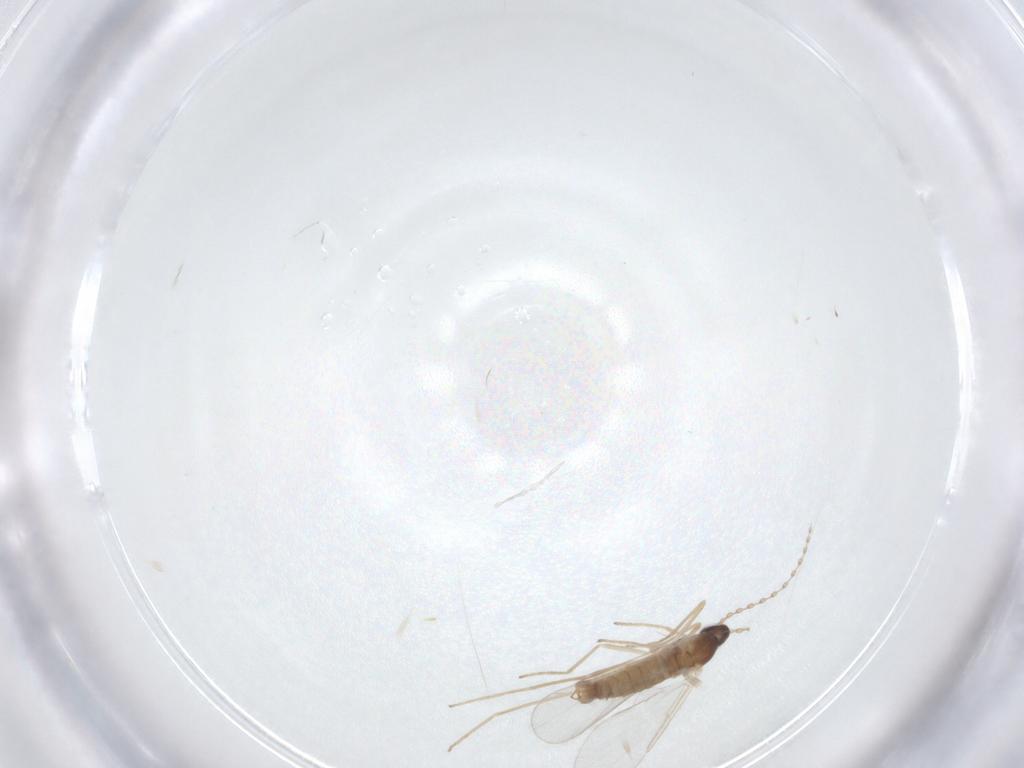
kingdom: Animalia
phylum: Arthropoda
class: Insecta
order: Diptera
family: Cecidomyiidae
